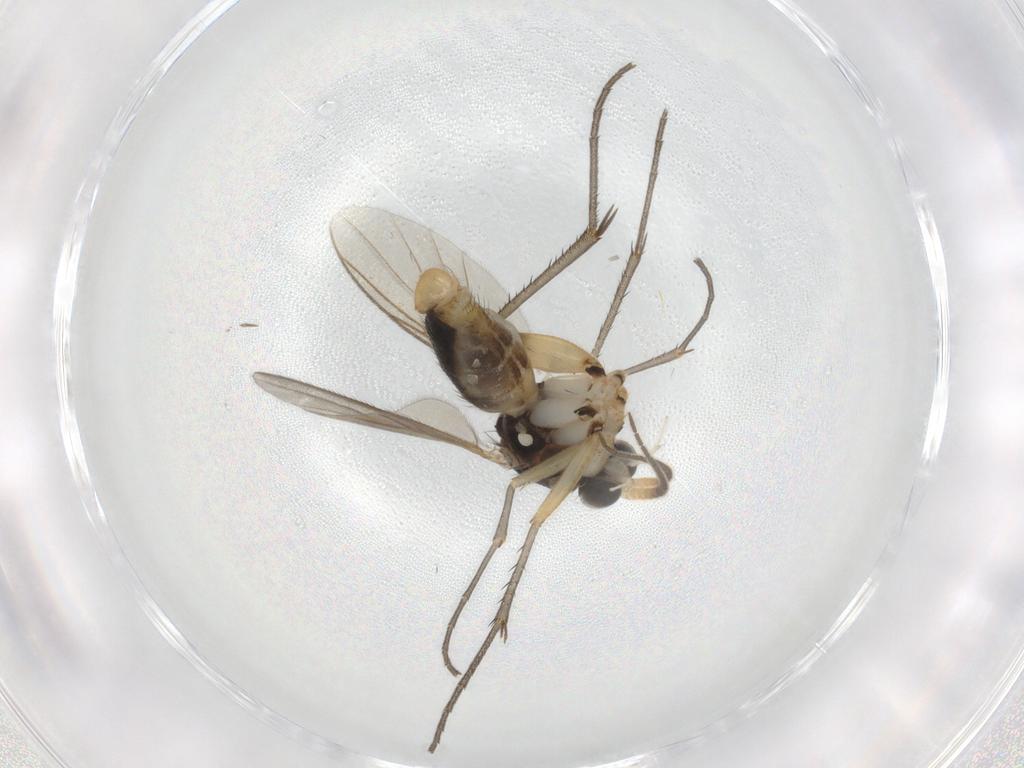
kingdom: Animalia
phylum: Arthropoda
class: Insecta
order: Diptera
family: Mycetophilidae
